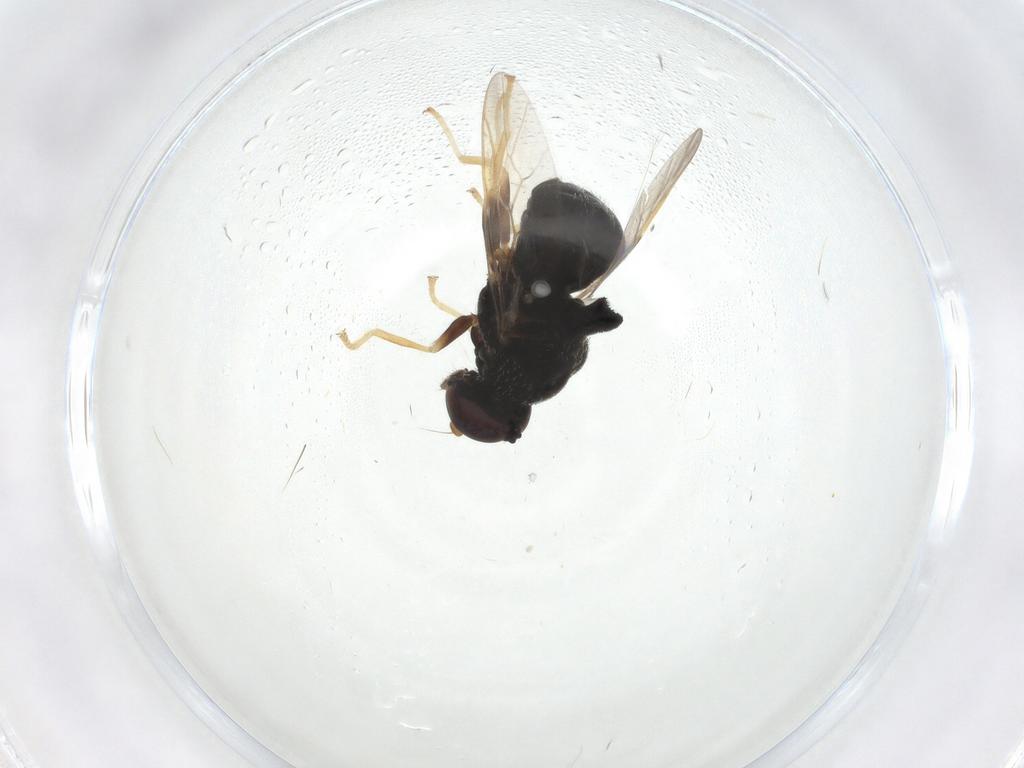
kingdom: Animalia
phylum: Arthropoda
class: Insecta
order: Diptera
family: Stratiomyidae
